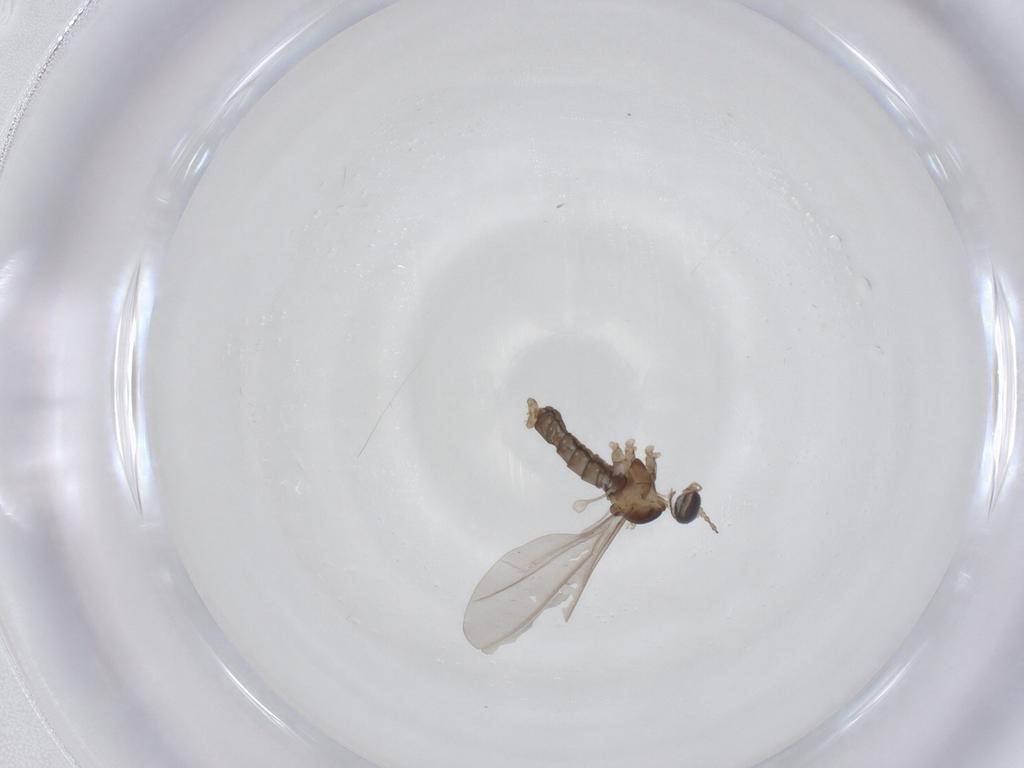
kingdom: Animalia
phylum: Arthropoda
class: Insecta
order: Diptera
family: Cecidomyiidae
